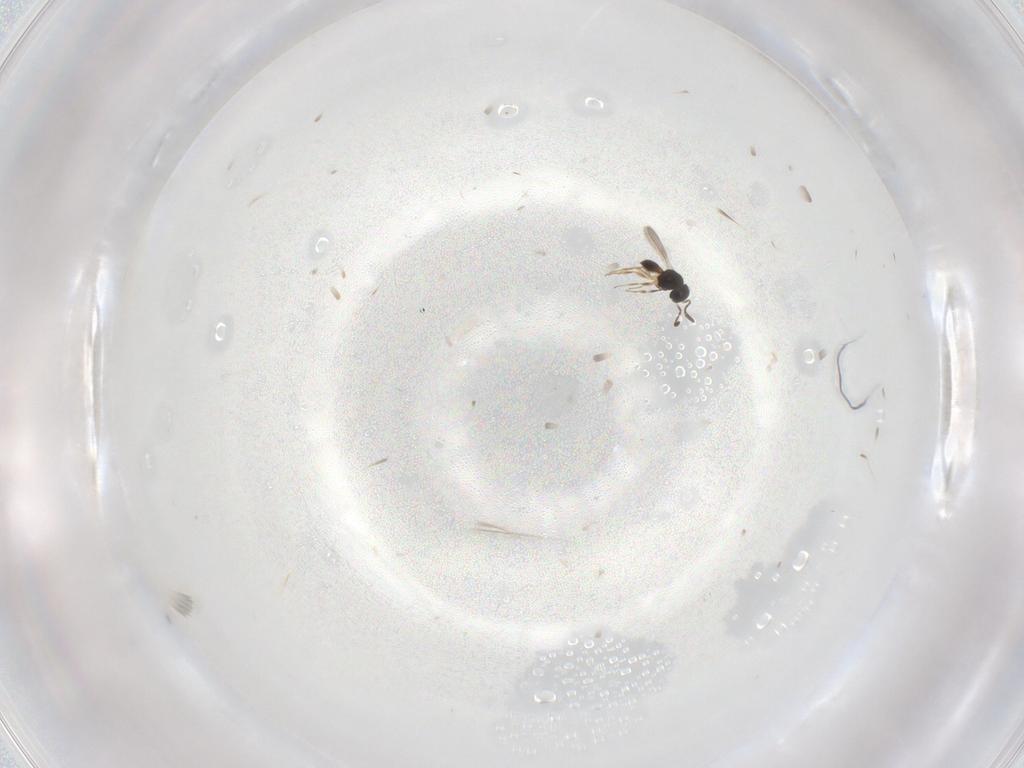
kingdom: Animalia
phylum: Arthropoda
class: Insecta
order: Hymenoptera
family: Scelionidae
